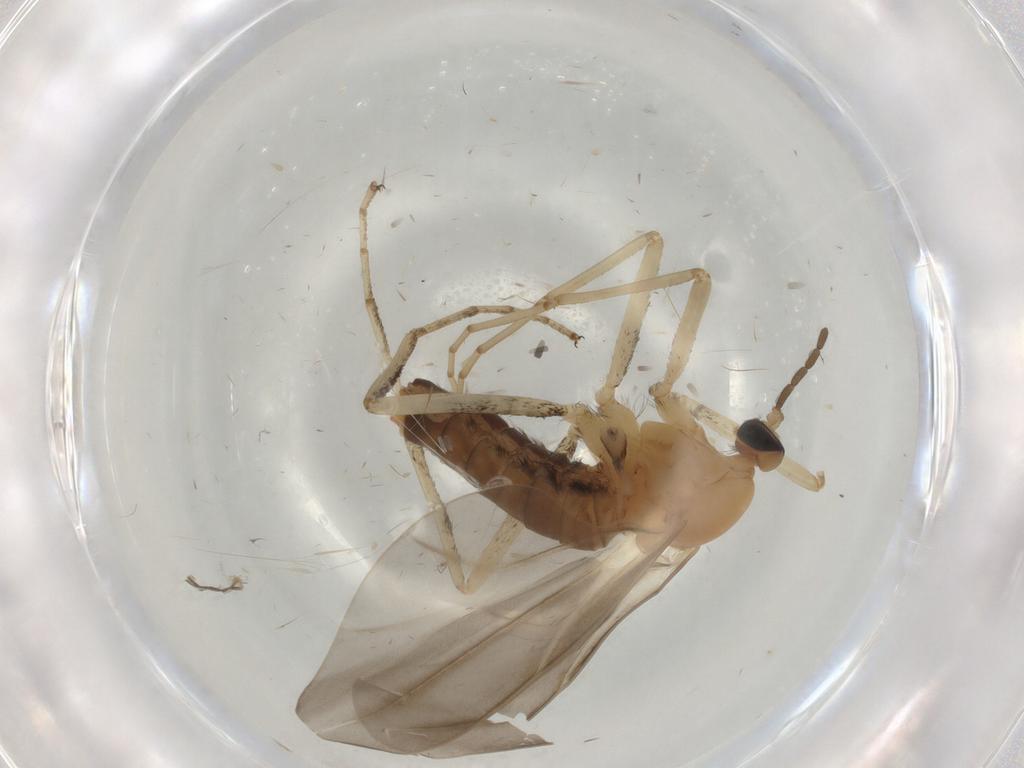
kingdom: Animalia
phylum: Arthropoda
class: Insecta
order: Diptera
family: Cecidomyiidae
